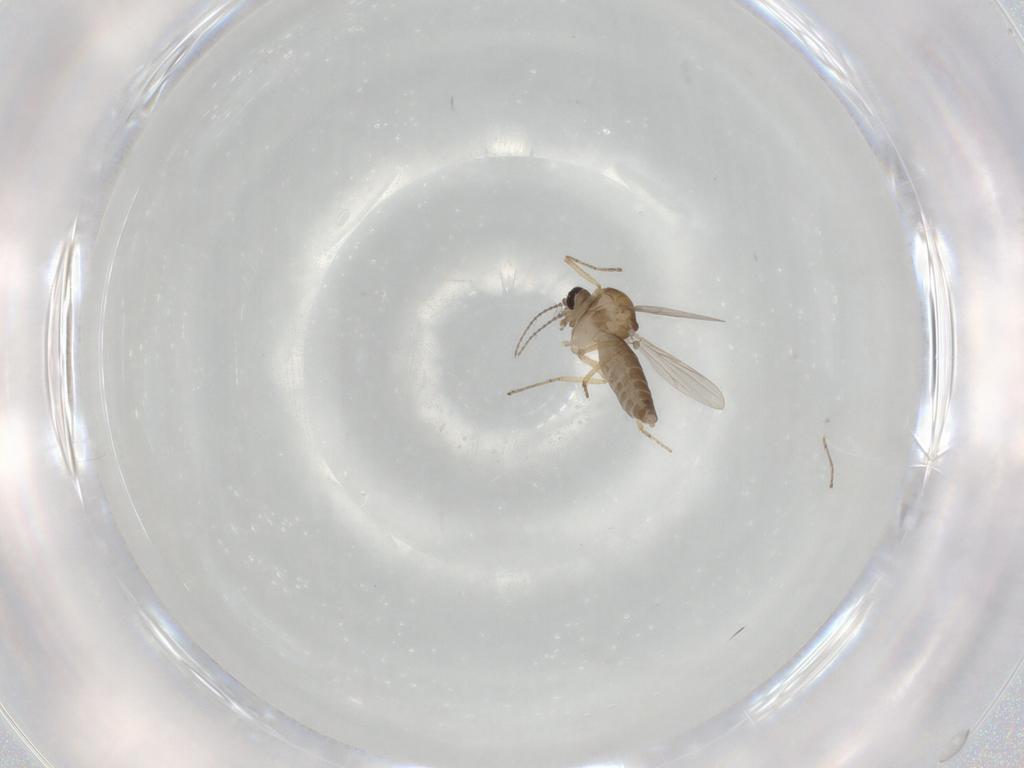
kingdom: Animalia
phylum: Arthropoda
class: Insecta
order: Diptera
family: Ceratopogonidae
